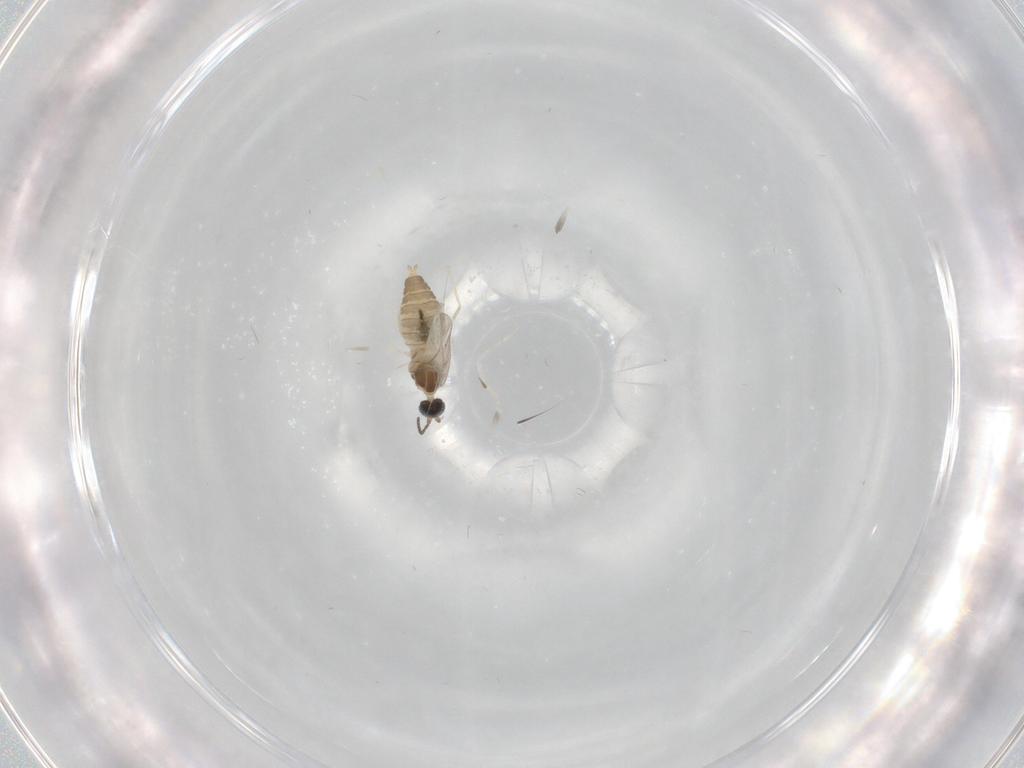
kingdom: Animalia
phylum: Arthropoda
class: Insecta
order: Diptera
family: Cecidomyiidae
